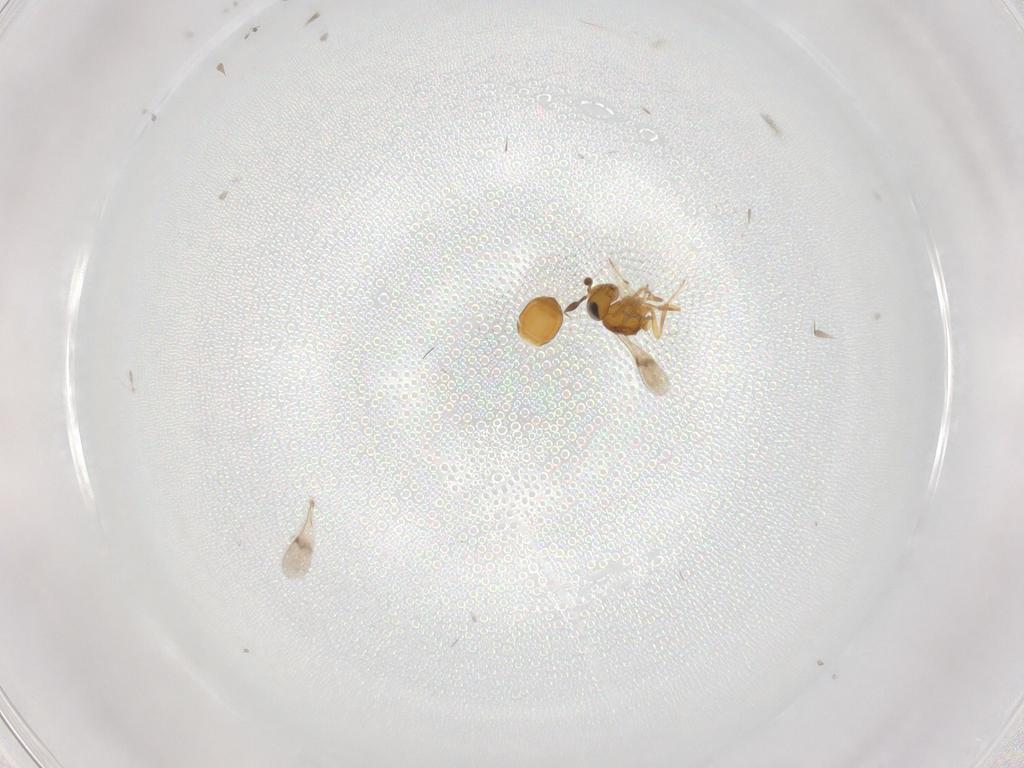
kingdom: Animalia
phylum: Arthropoda
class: Insecta
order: Hymenoptera
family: Scelionidae
